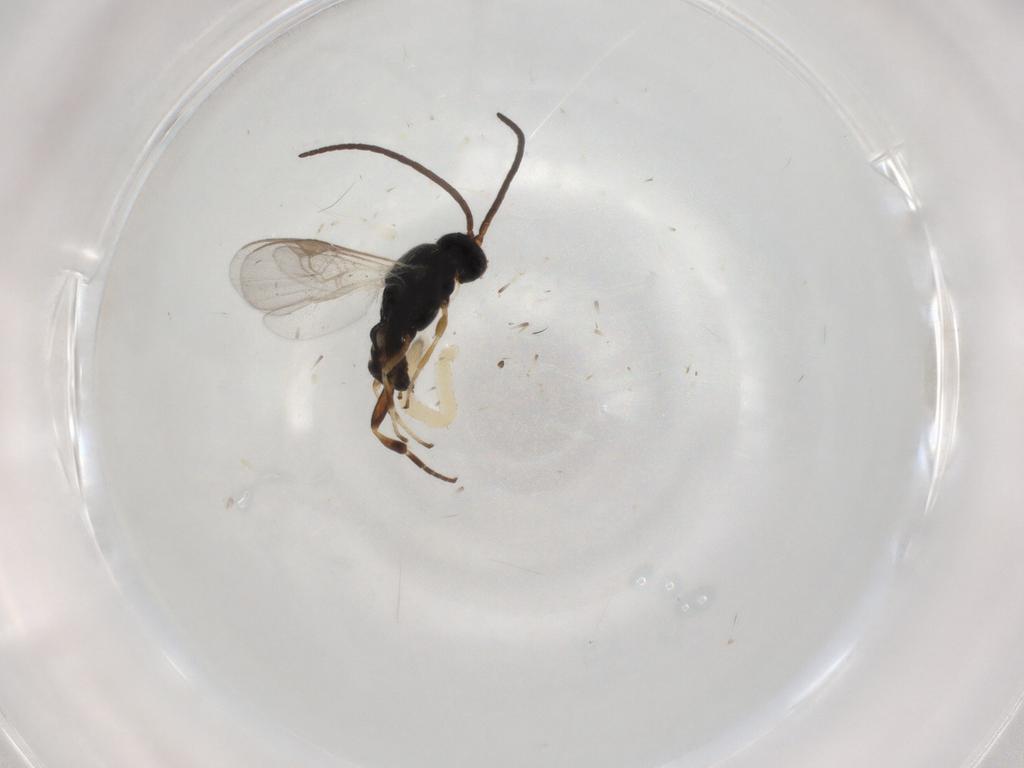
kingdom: Animalia
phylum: Arthropoda
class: Insecta
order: Hymenoptera
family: Braconidae
